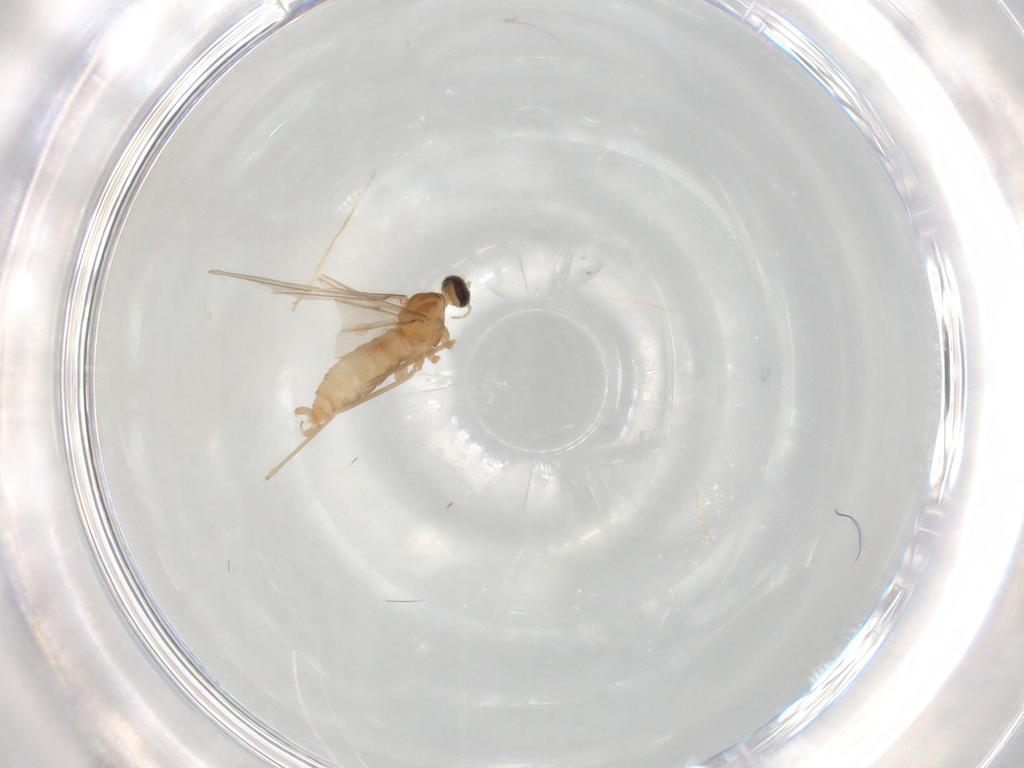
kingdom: Animalia
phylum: Arthropoda
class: Insecta
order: Diptera
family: Cecidomyiidae
